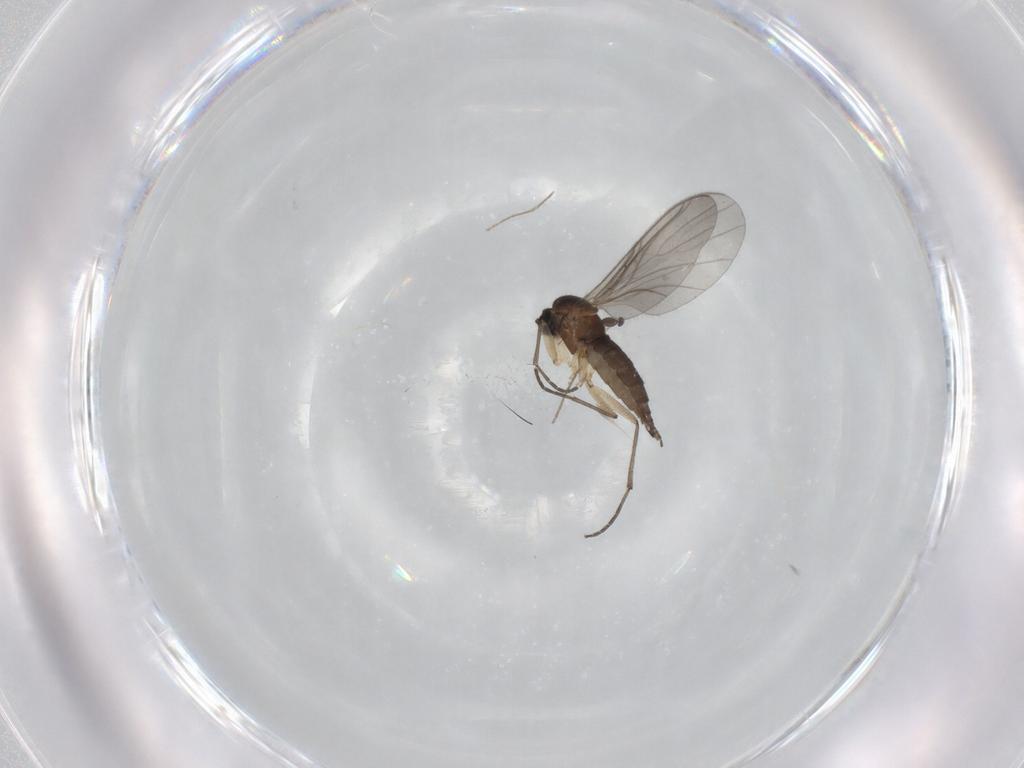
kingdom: Animalia
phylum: Arthropoda
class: Insecta
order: Diptera
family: Sciaridae
